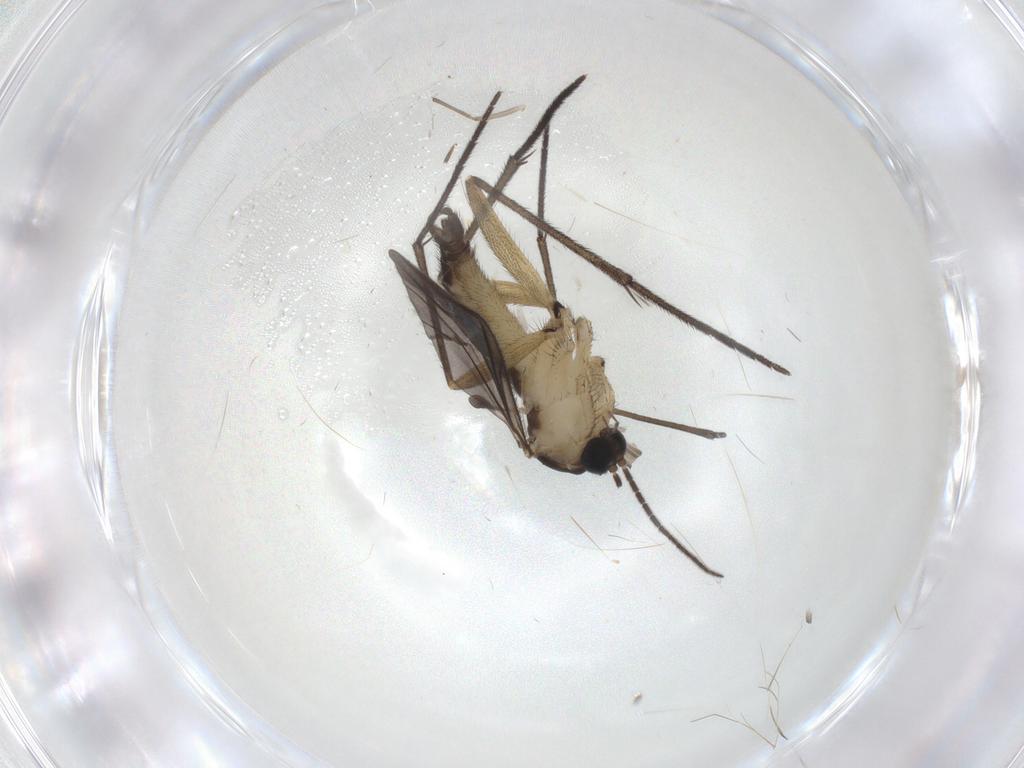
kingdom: Animalia
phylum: Arthropoda
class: Insecta
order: Diptera
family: Sciaridae
